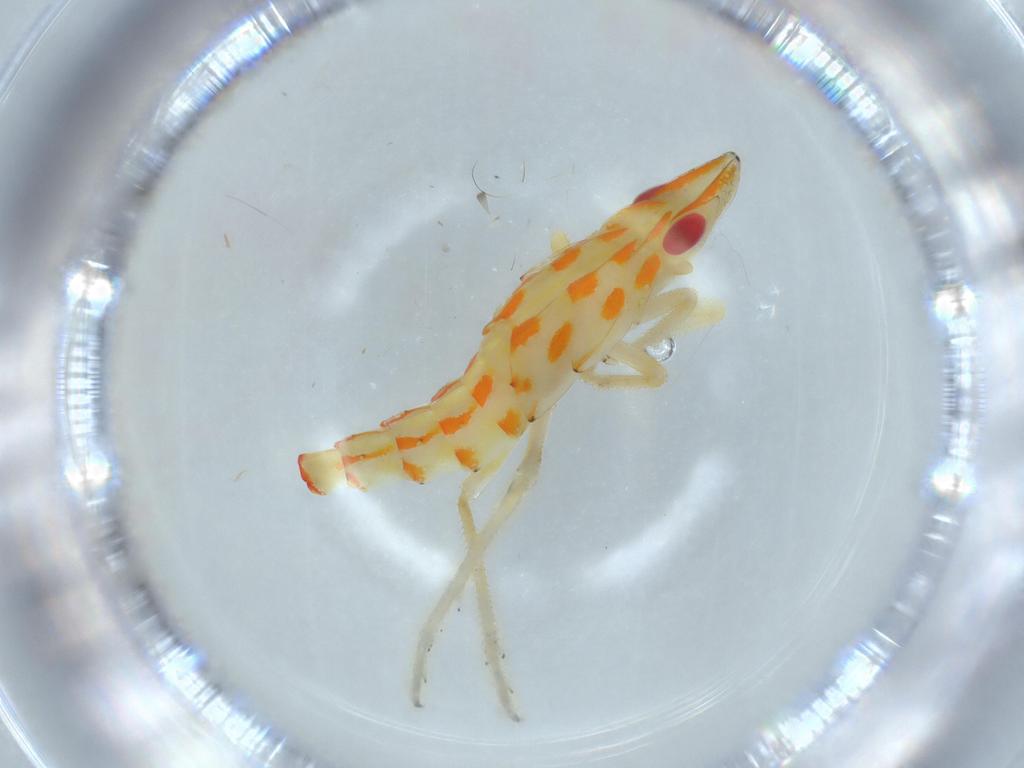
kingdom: Animalia
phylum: Arthropoda
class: Insecta
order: Hemiptera
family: Tropiduchidae
